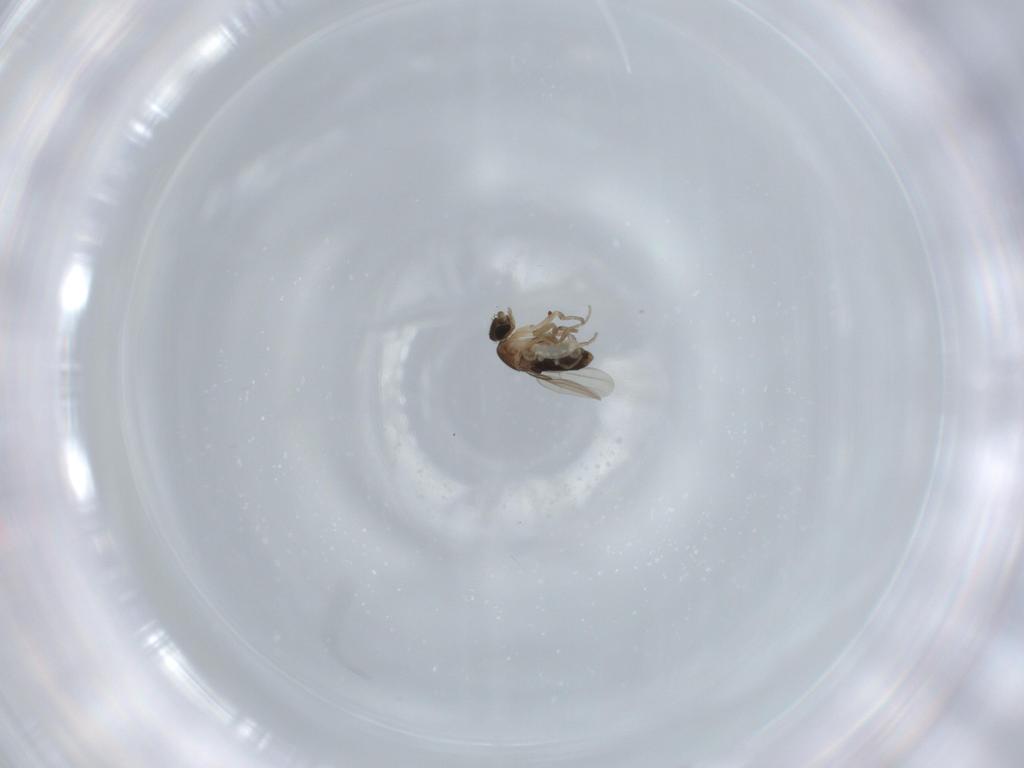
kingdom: Animalia
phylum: Arthropoda
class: Insecta
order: Diptera
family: Phoridae
